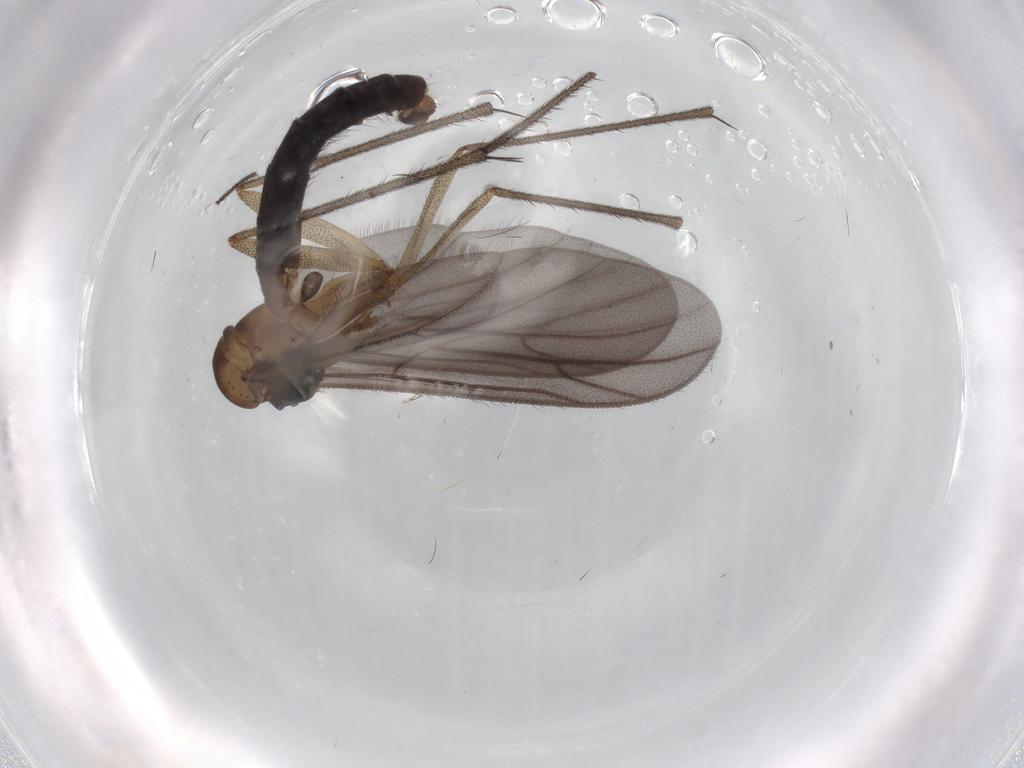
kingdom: Animalia
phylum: Arthropoda
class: Insecta
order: Diptera
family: Ditomyiidae
